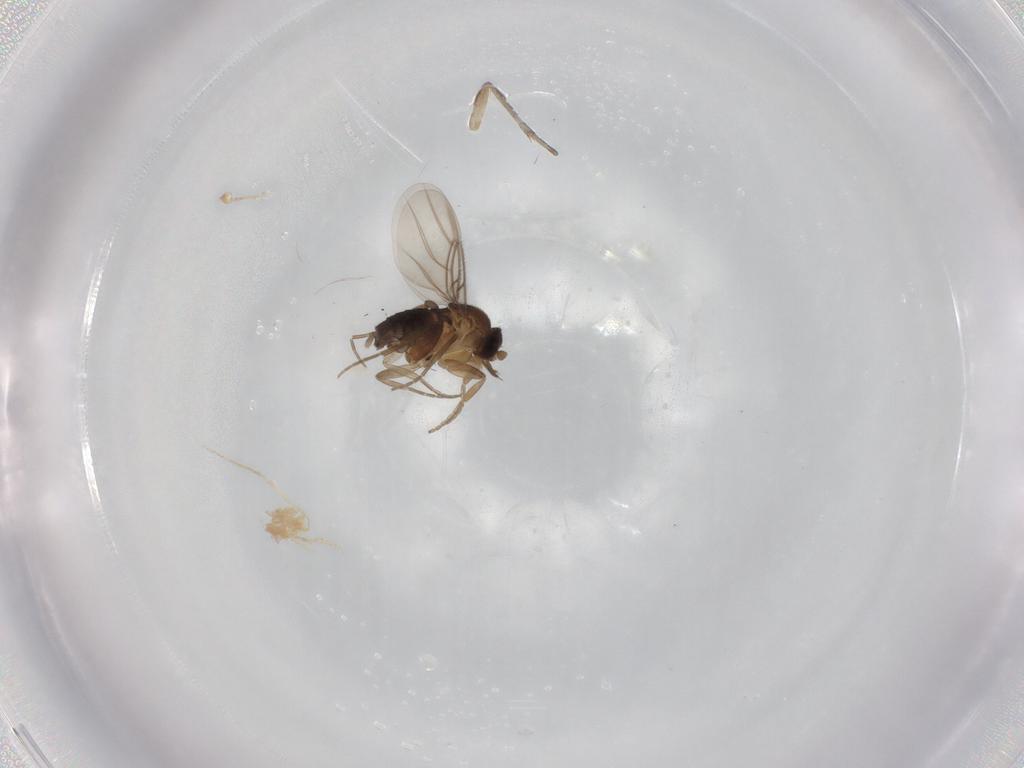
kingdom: Animalia
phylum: Arthropoda
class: Insecta
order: Diptera
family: Phoridae
